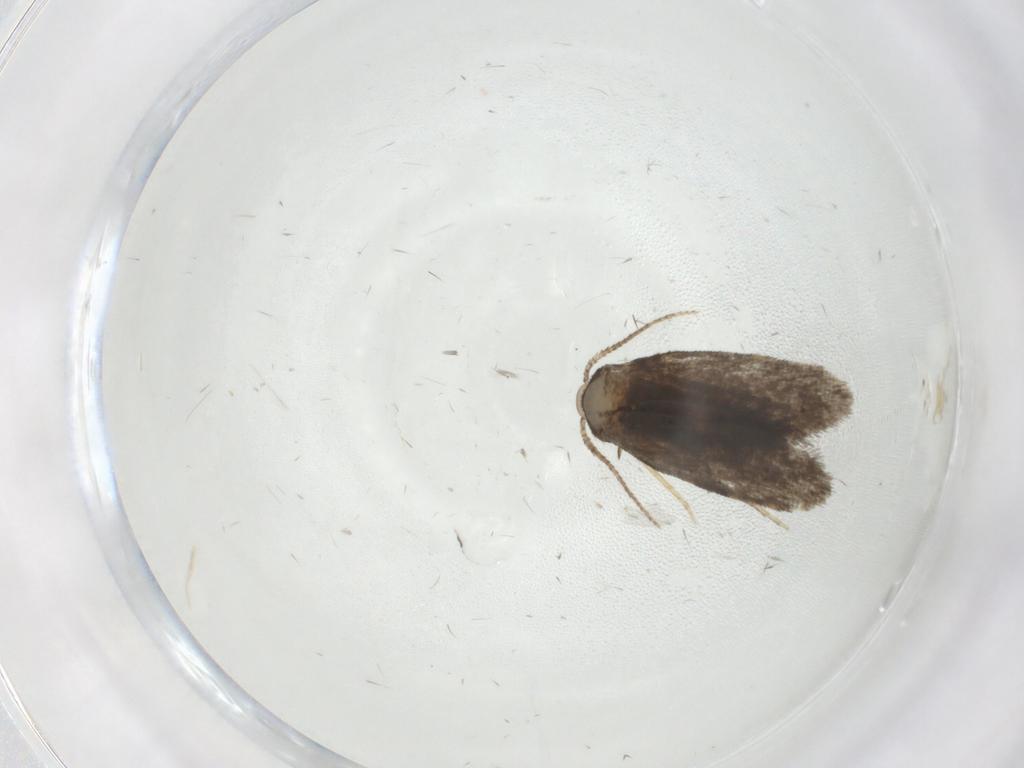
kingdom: Animalia
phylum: Arthropoda
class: Insecta
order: Lepidoptera
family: Psychidae
